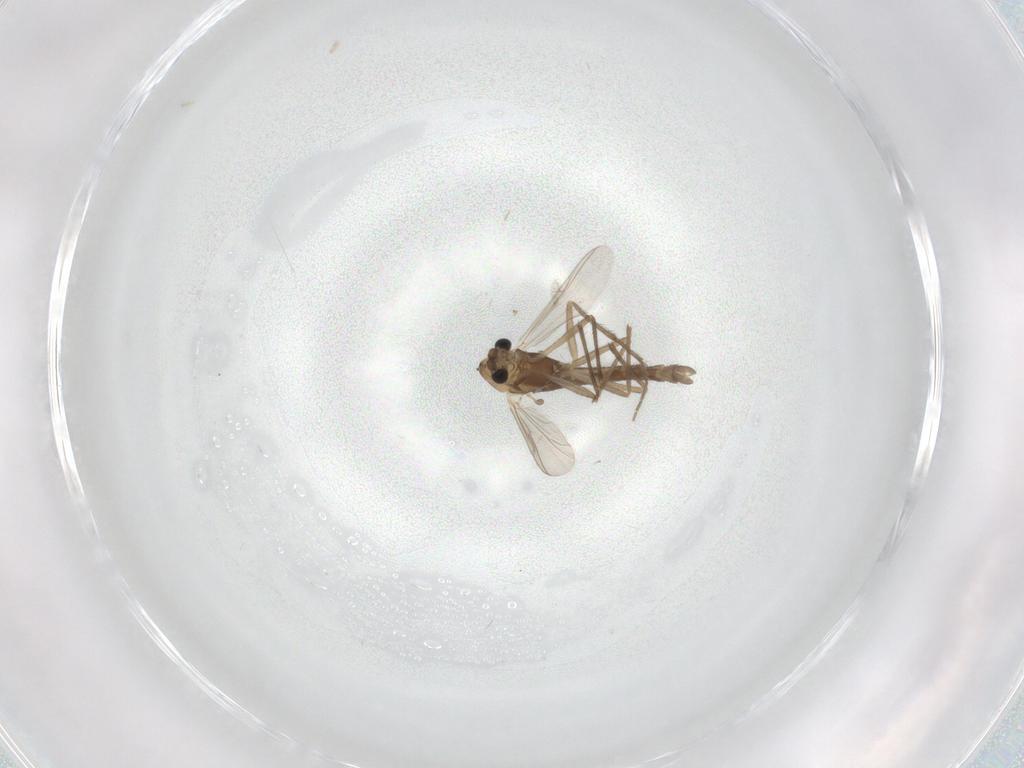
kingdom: Animalia
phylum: Arthropoda
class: Insecta
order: Diptera
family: Chironomidae
